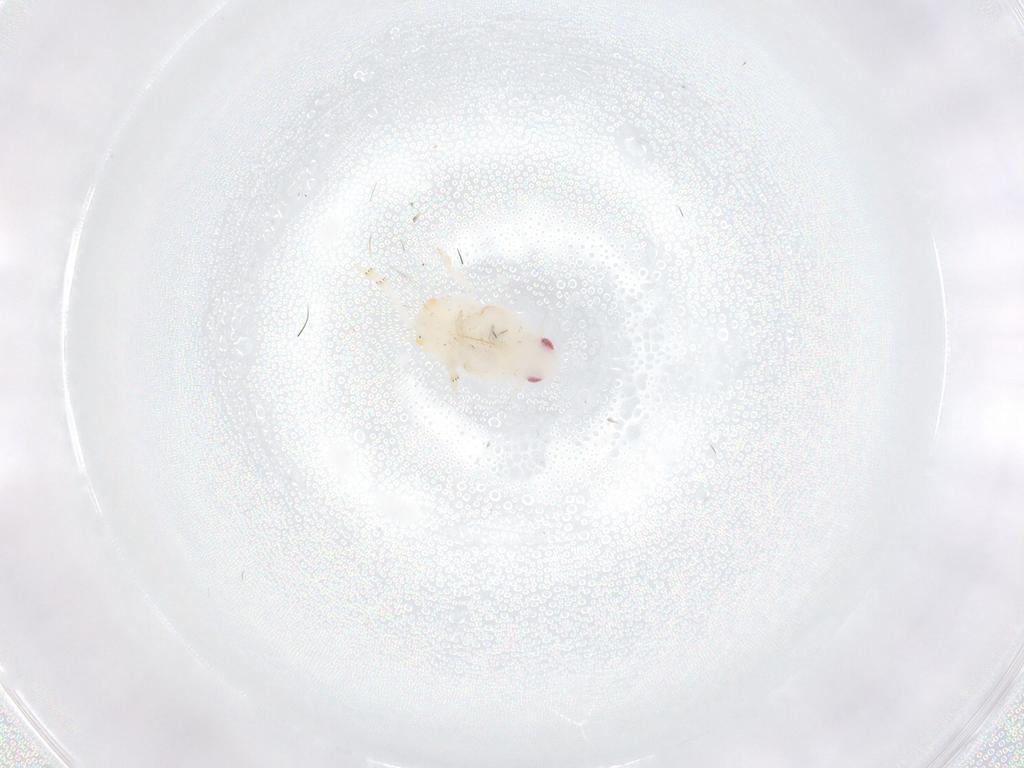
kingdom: Animalia
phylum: Arthropoda
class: Insecta
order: Hemiptera
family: Flatidae
